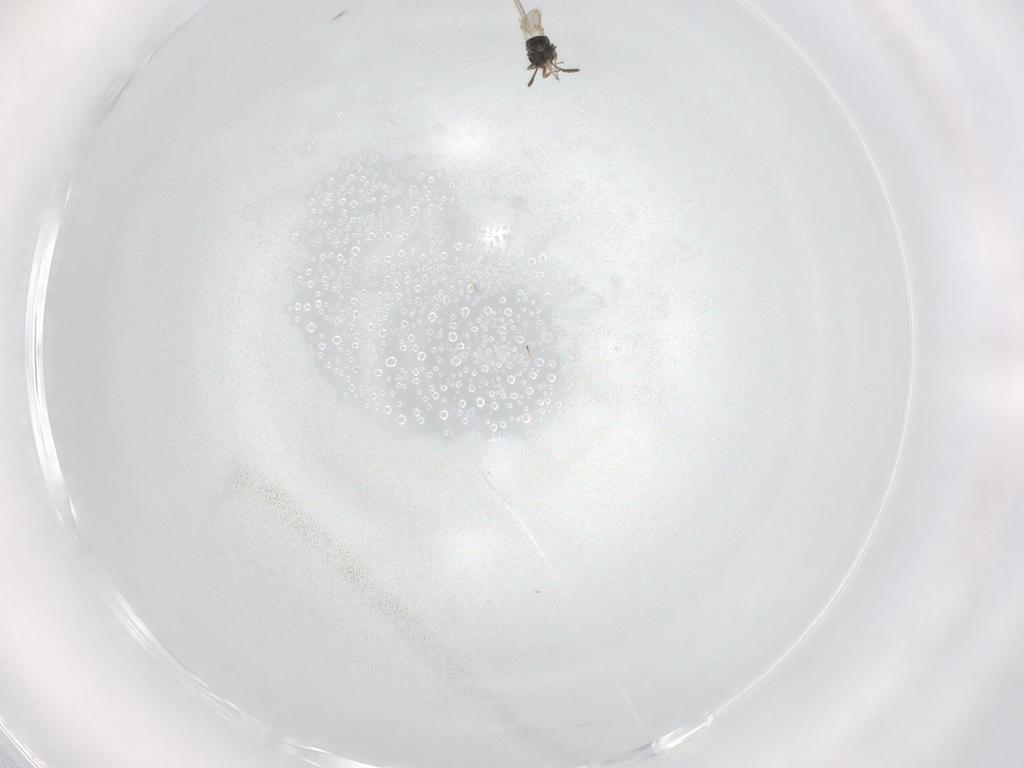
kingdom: Animalia
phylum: Arthropoda
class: Insecta
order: Hymenoptera
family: Scelionidae
